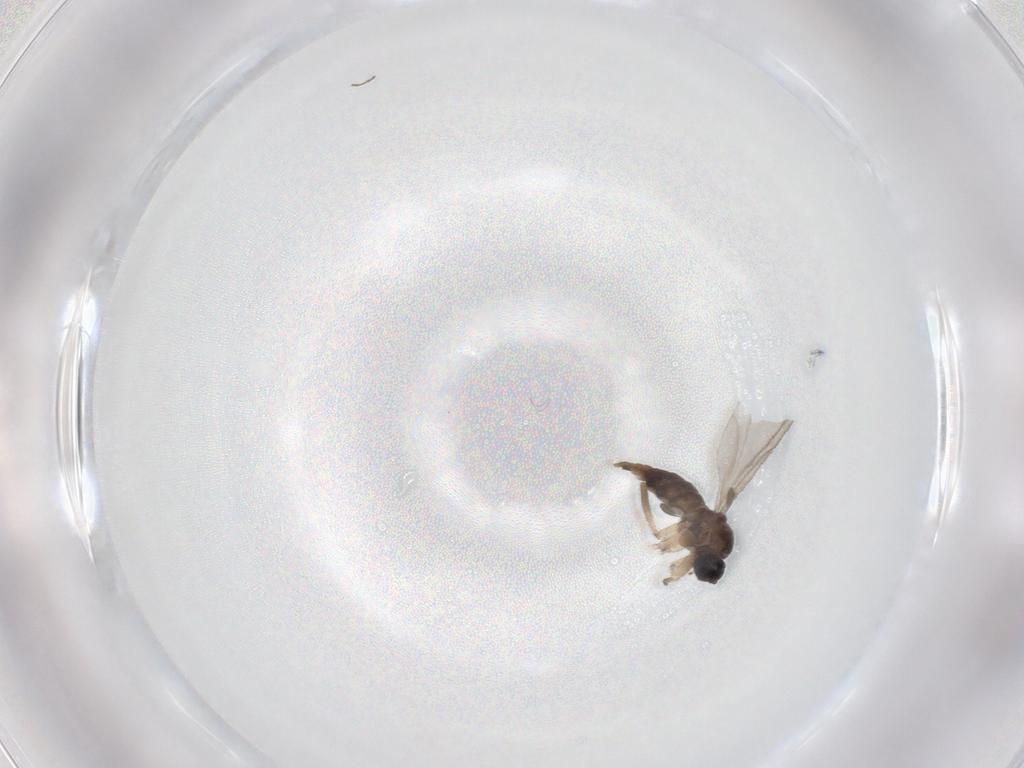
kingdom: Animalia
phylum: Arthropoda
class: Insecta
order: Diptera
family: Cecidomyiidae
